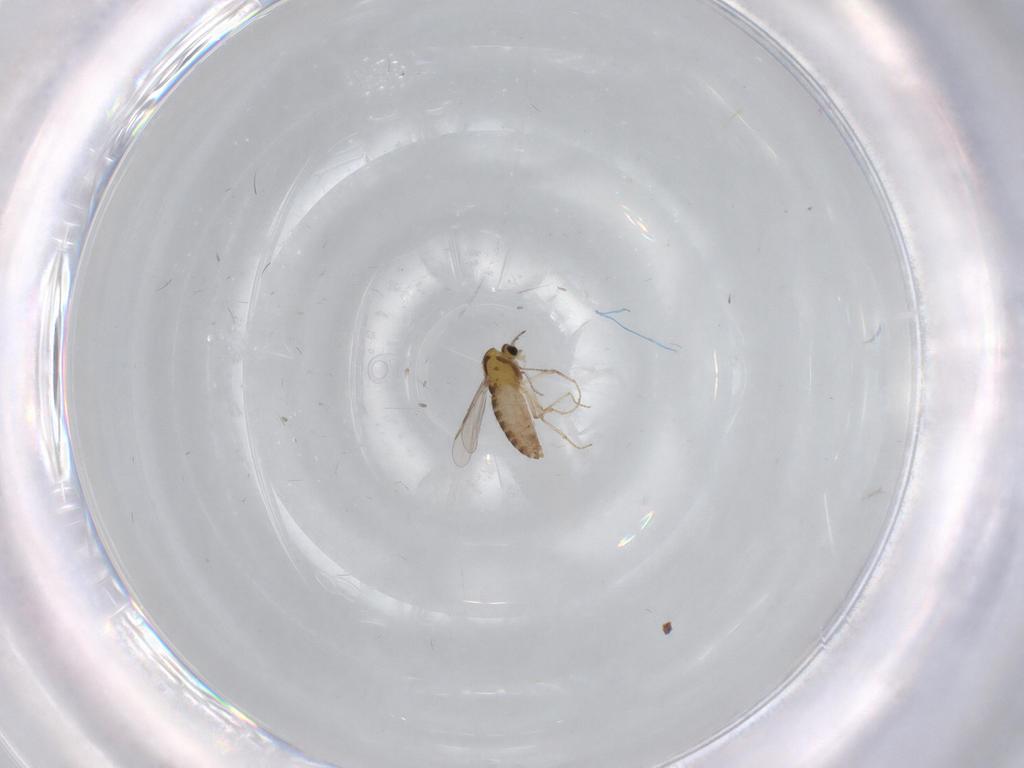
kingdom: Animalia
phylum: Arthropoda
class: Insecta
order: Diptera
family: Chironomidae
